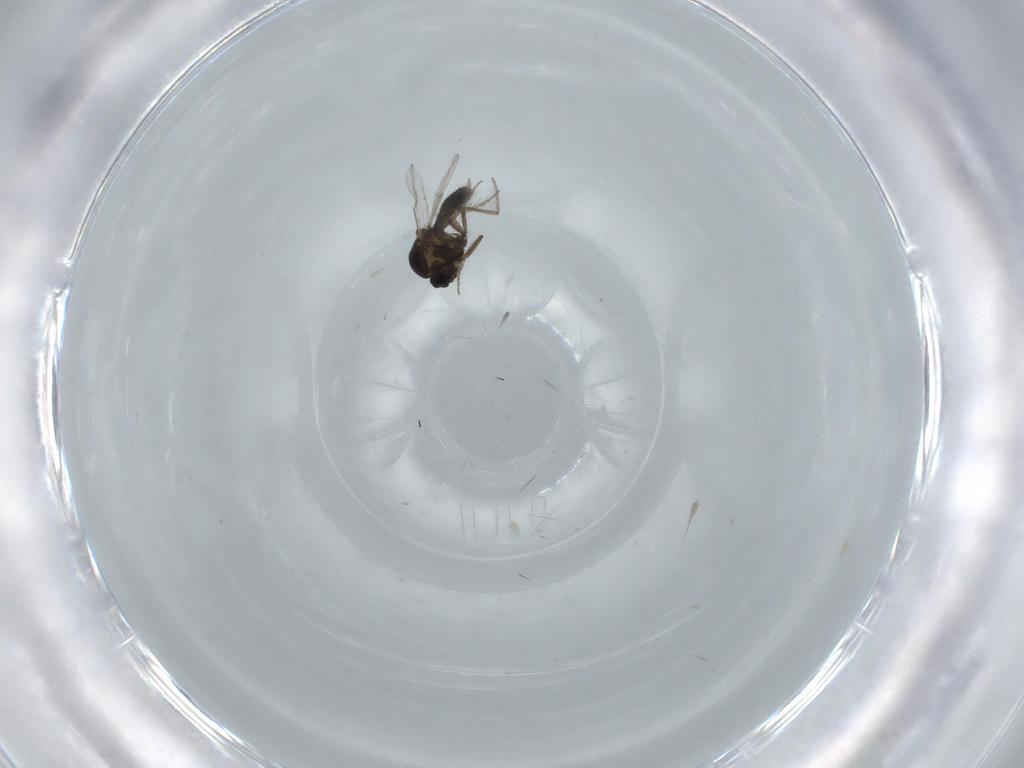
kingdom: Animalia
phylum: Arthropoda
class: Insecta
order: Diptera
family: Ceratopogonidae
